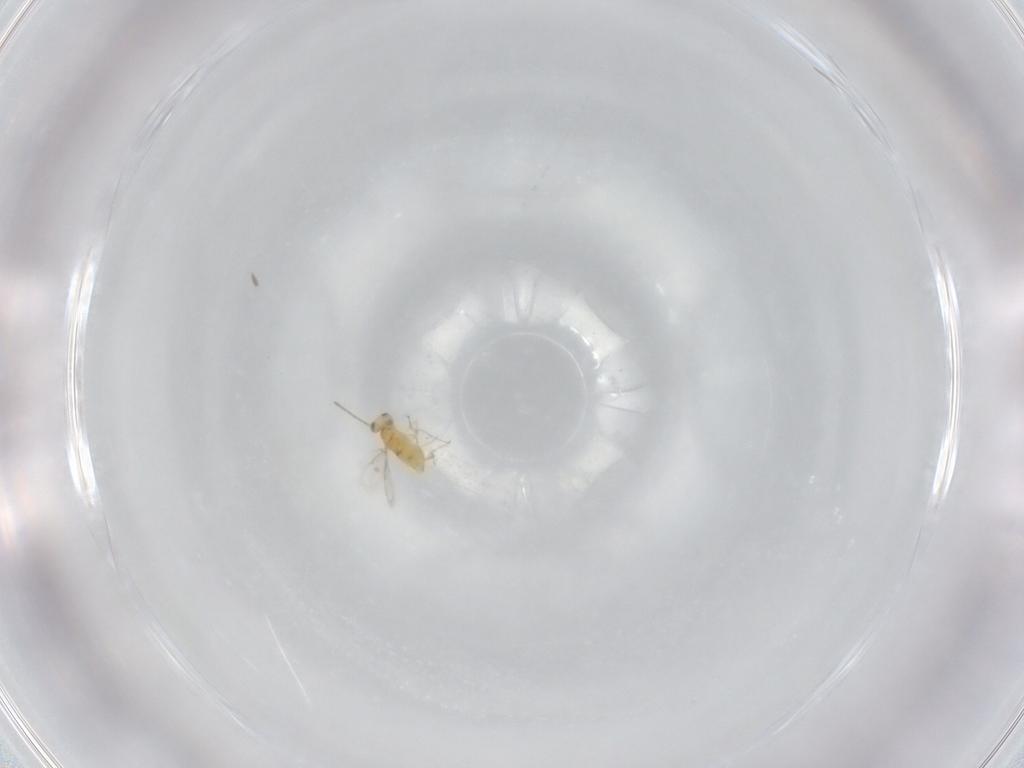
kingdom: Animalia
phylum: Arthropoda
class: Insecta
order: Hymenoptera
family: Aphelinidae
